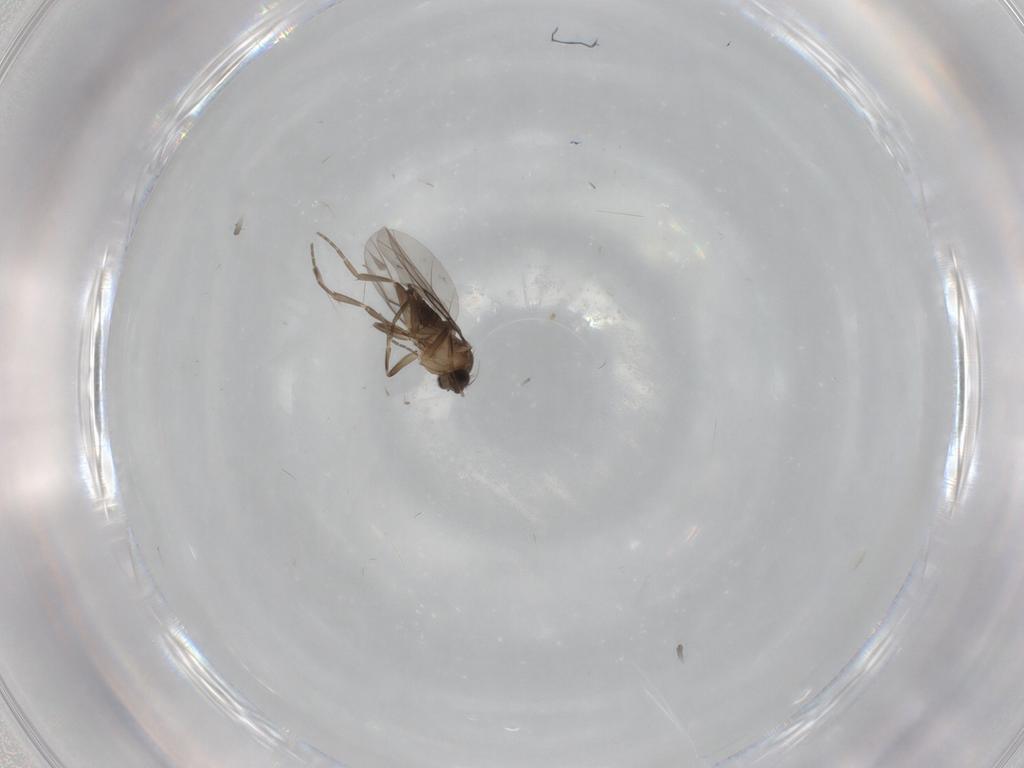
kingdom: Animalia
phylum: Arthropoda
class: Insecta
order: Diptera
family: Phoridae
